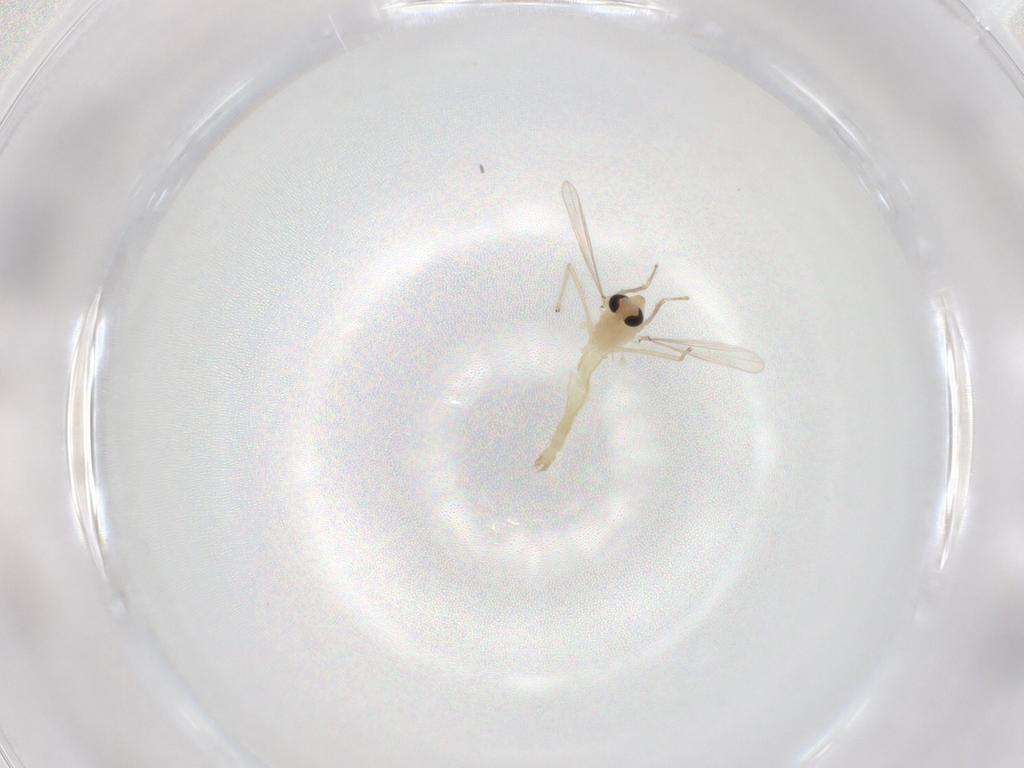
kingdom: Animalia
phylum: Arthropoda
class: Insecta
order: Diptera
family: Chironomidae
